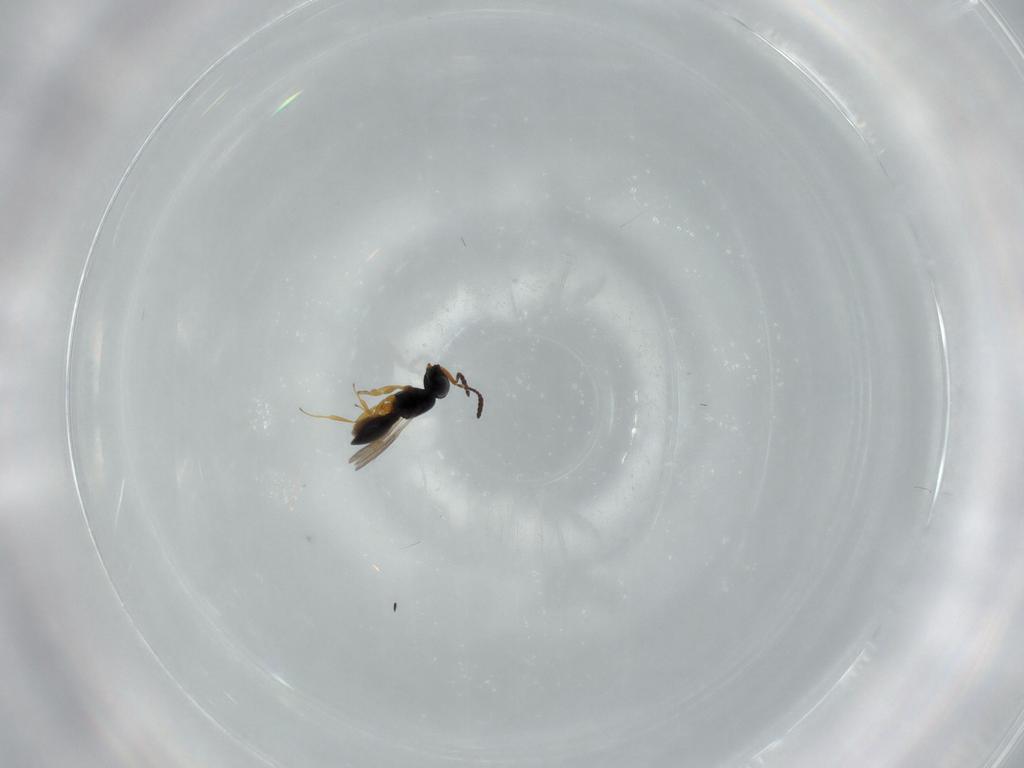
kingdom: Animalia
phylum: Arthropoda
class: Insecta
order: Hymenoptera
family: Scelionidae
